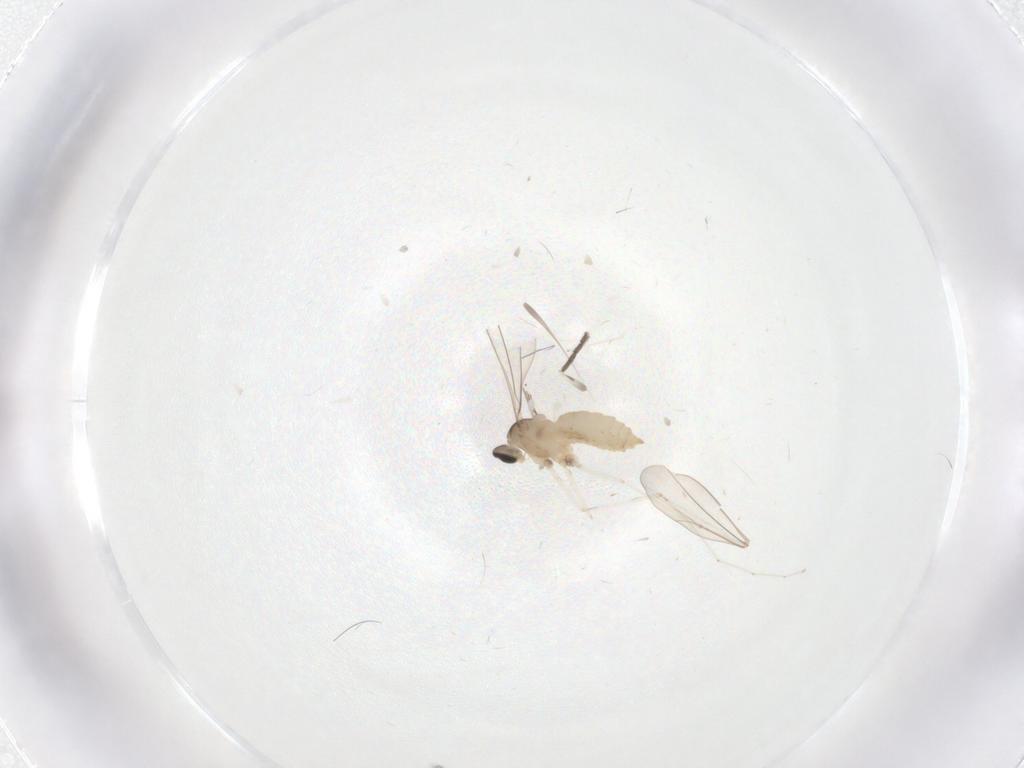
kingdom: Animalia
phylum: Arthropoda
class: Insecta
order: Diptera
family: Cecidomyiidae
